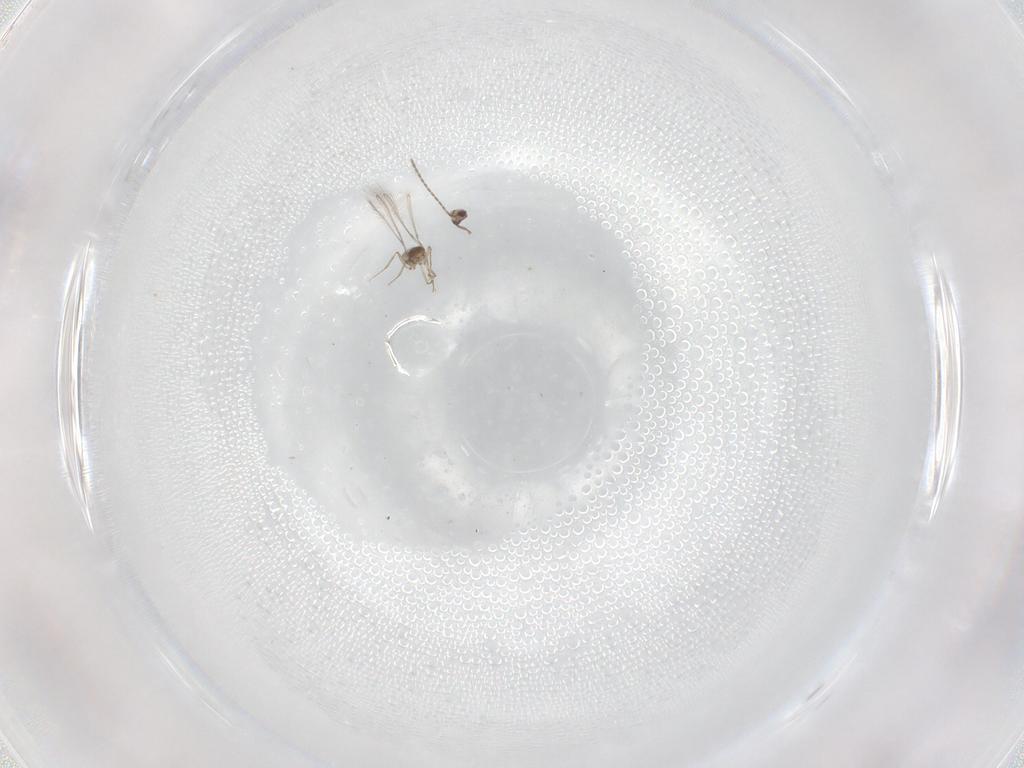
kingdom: Animalia
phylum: Arthropoda
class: Insecta
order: Hymenoptera
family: Mymaridae
